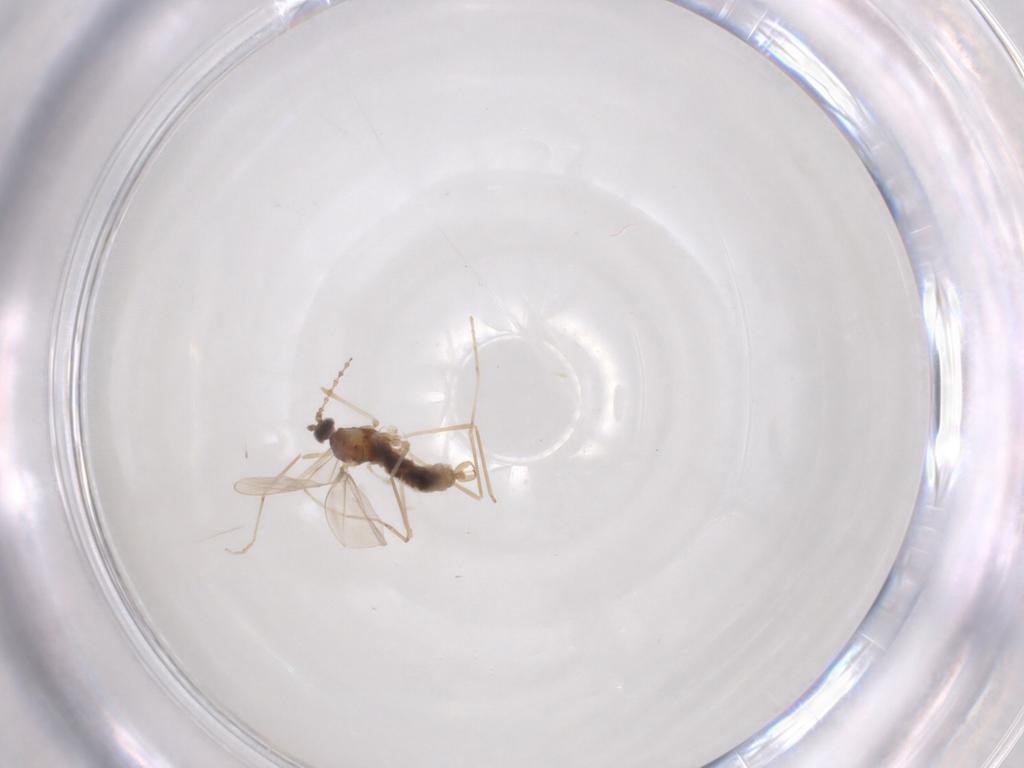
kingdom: Animalia
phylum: Arthropoda
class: Insecta
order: Diptera
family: Cecidomyiidae
